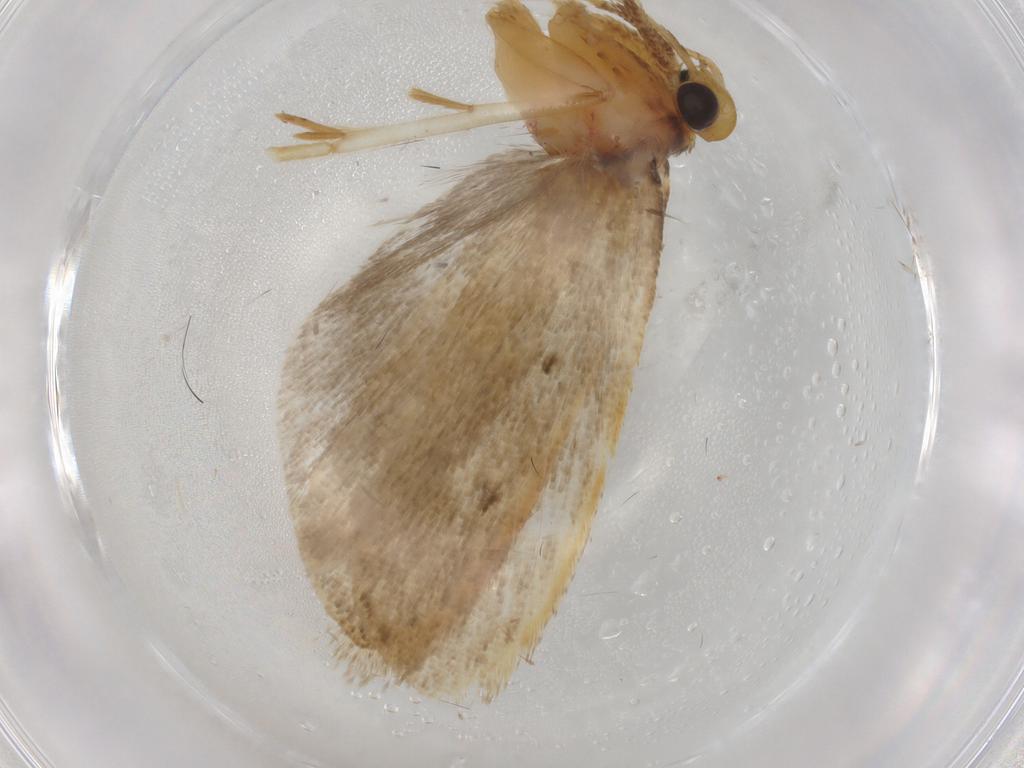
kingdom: Animalia
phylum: Arthropoda
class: Insecta
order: Lepidoptera
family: Gelechiidae
